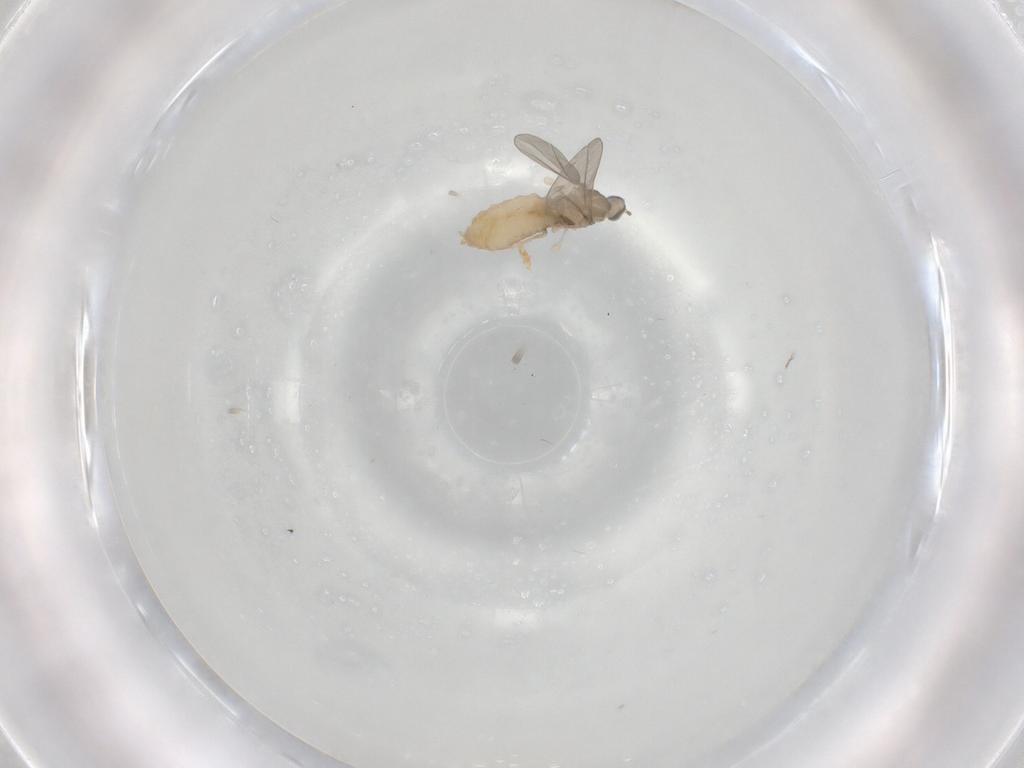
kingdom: Animalia
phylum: Arthropoda
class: Insecta
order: Diptera
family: Cecidomyiidae
